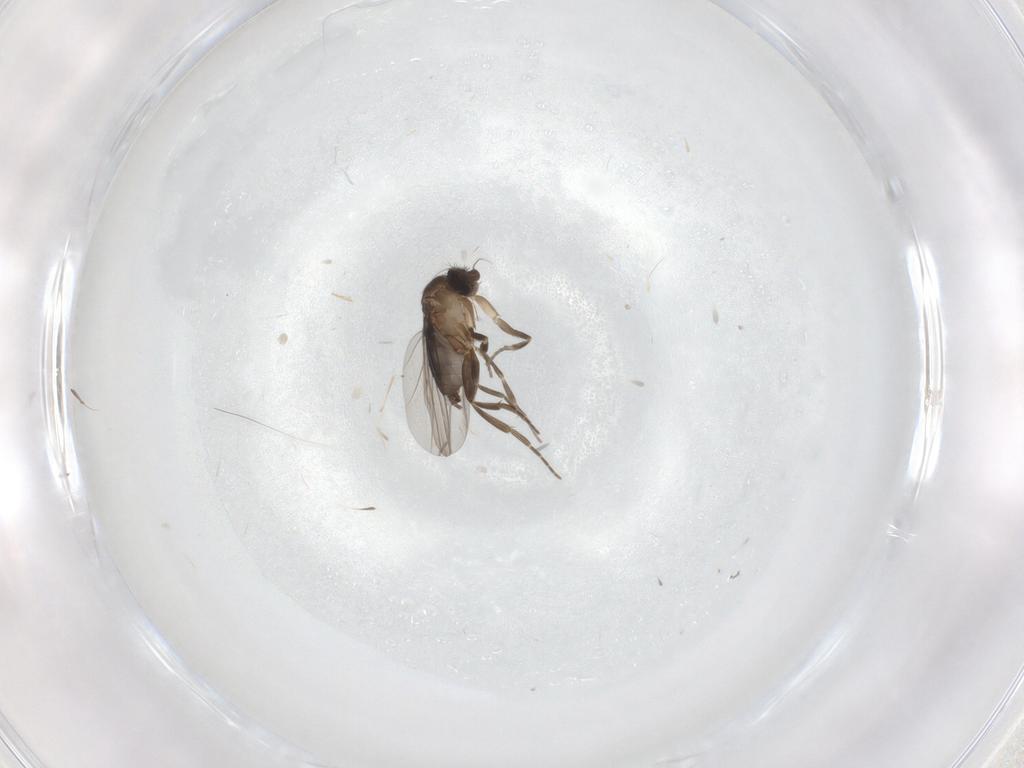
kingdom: Animalia
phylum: Arthropoda
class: Insecta
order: Diptera
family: Phoridae
